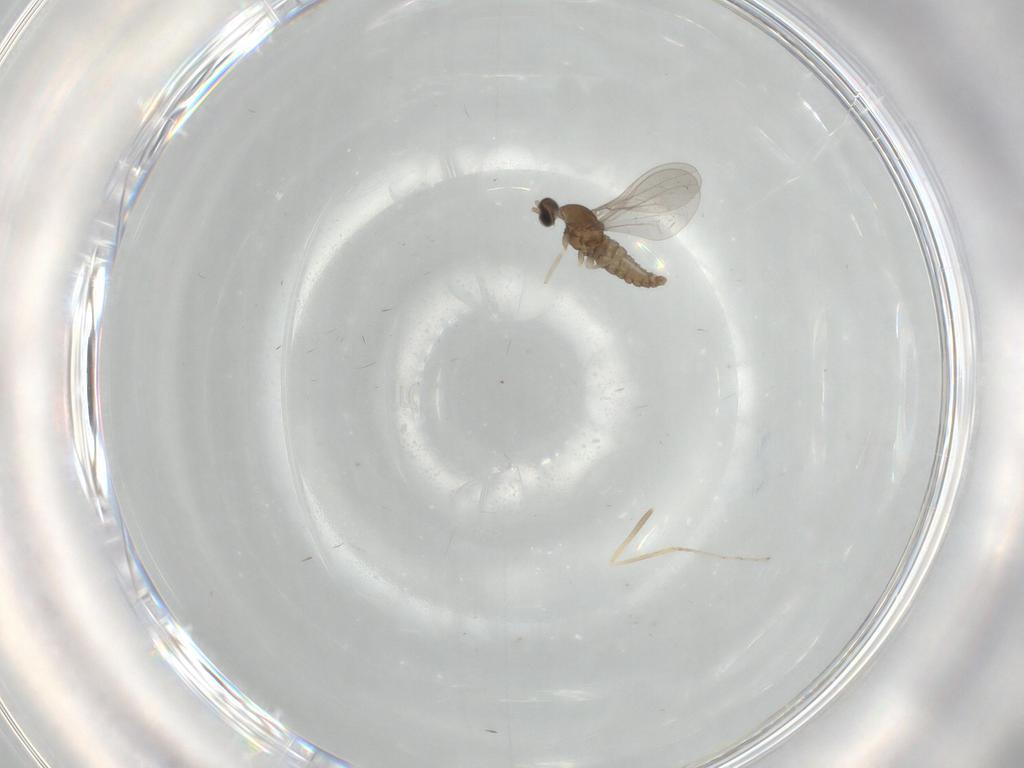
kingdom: Animalia
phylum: Arthropoda
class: Insecta
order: Diptera
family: Cecidomyiidae
